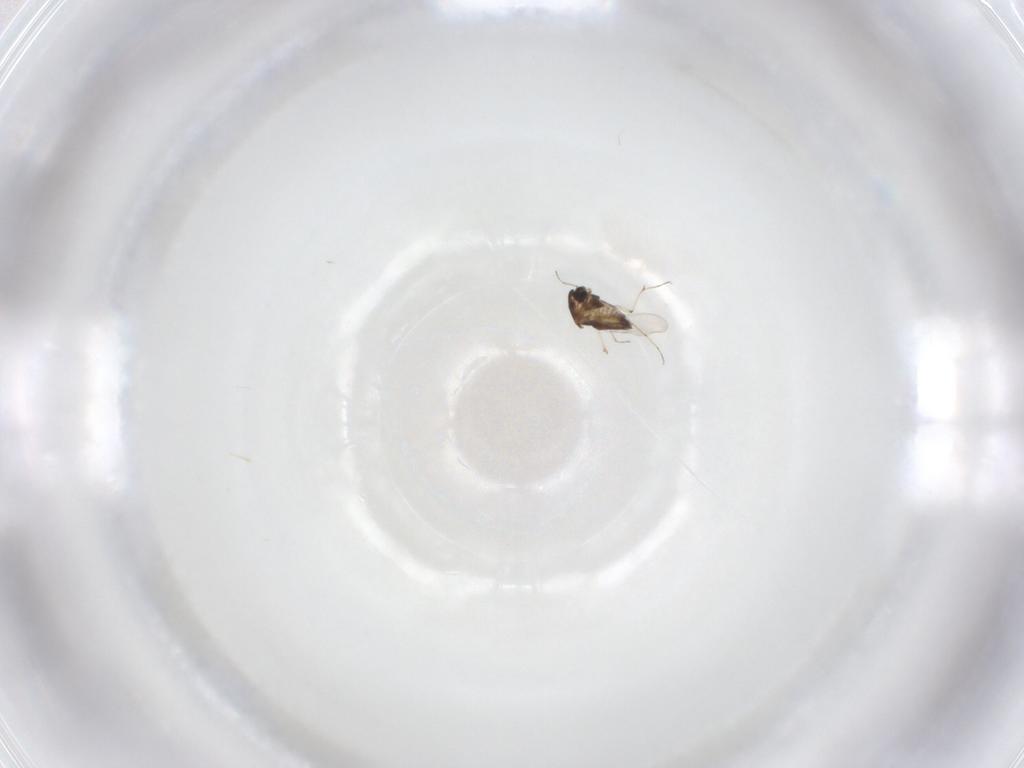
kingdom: Animalia
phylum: Arthropoda
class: Insecta
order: Diptera
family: Chironomidae
